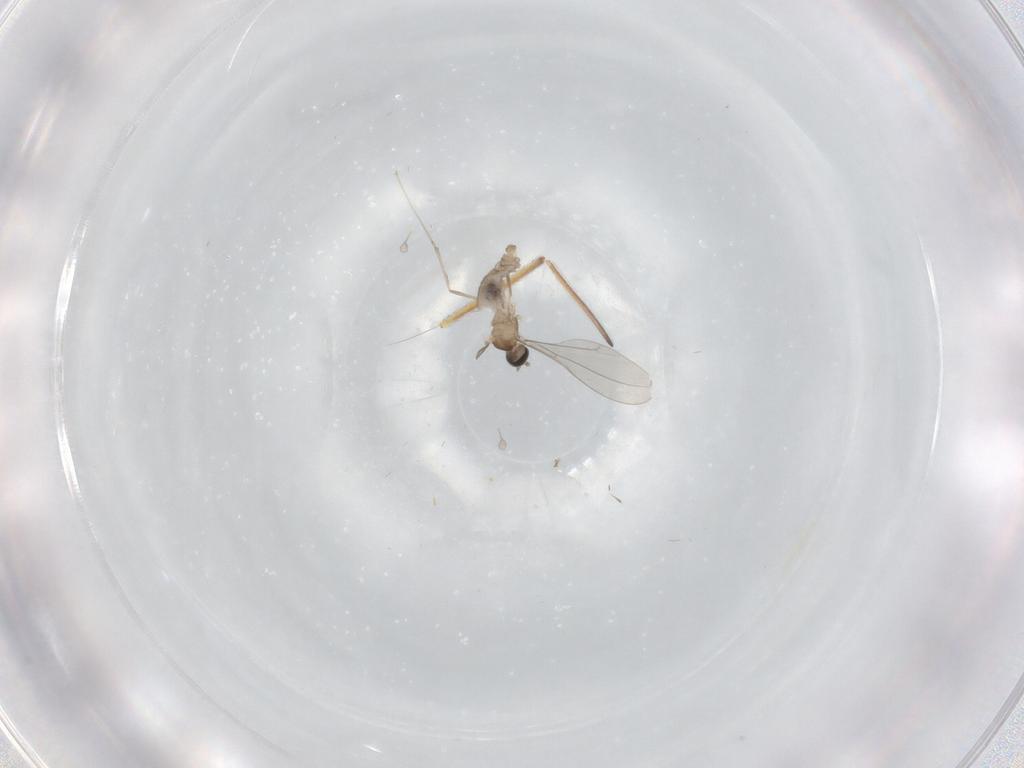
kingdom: Animalia
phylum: Arthropoda
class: Insecta
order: Diptera
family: Cecidomyiidae
